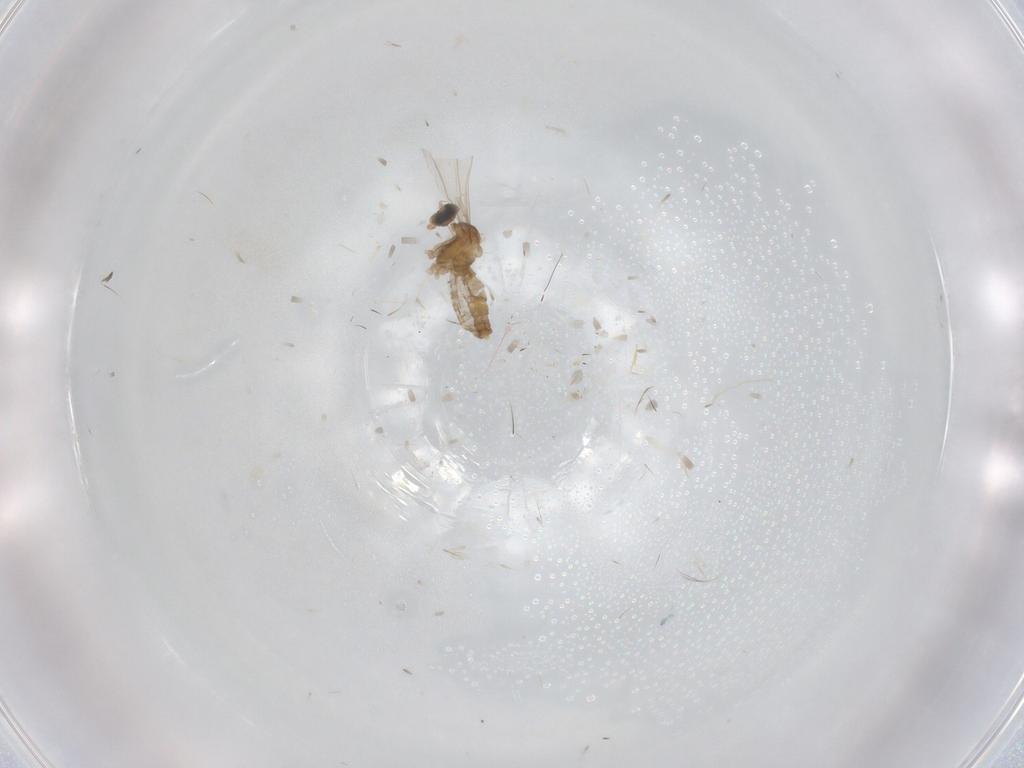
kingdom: Animalia
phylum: Arthropoda
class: Insecta
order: Diptera
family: Glossinidae
